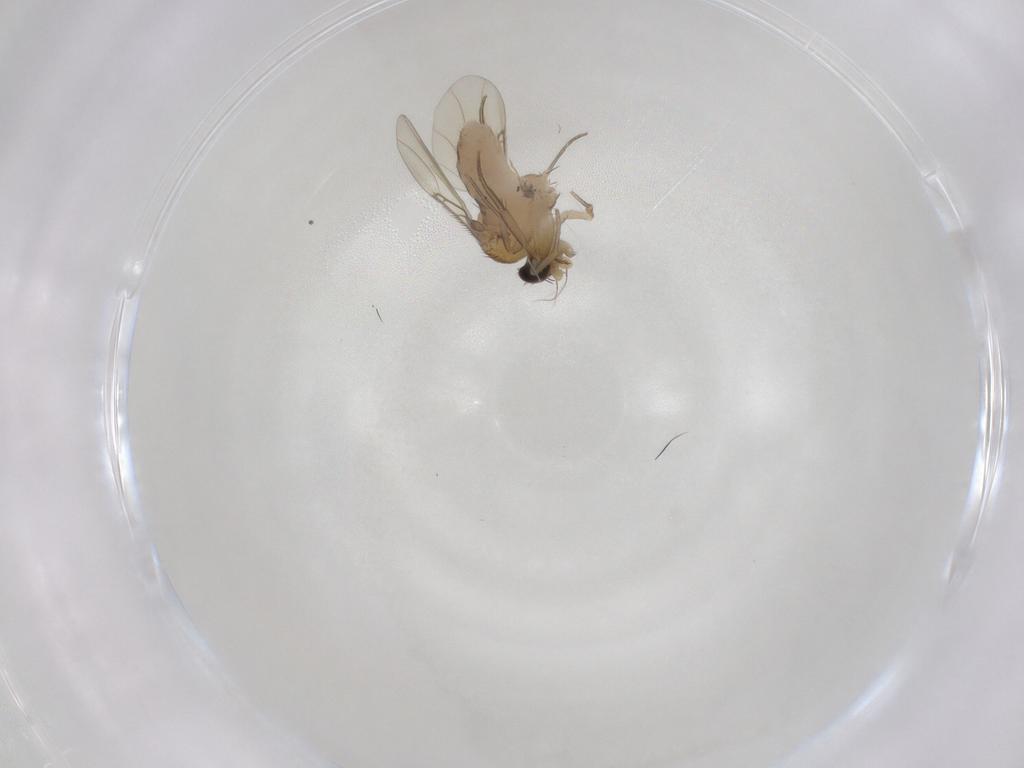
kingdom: Animalia
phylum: Arthropoda
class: Insecta
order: Diptera
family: Phoridae
